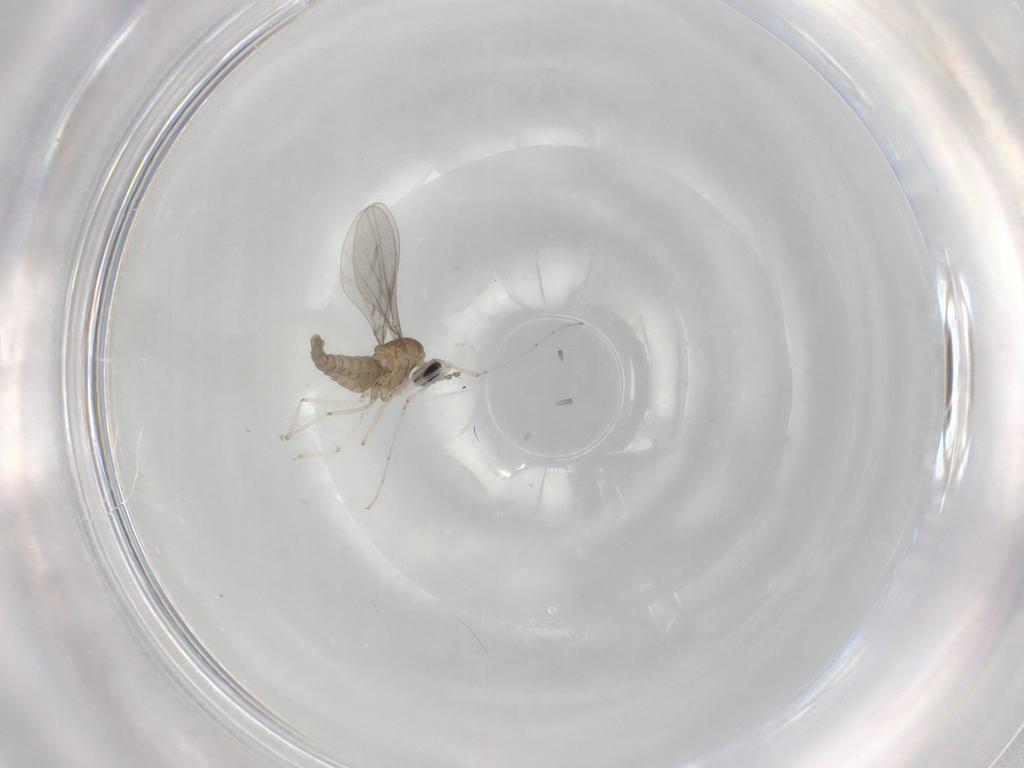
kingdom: Animalia
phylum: Arthropoda
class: Insecta
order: Diptera
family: Cecidomyiidae
